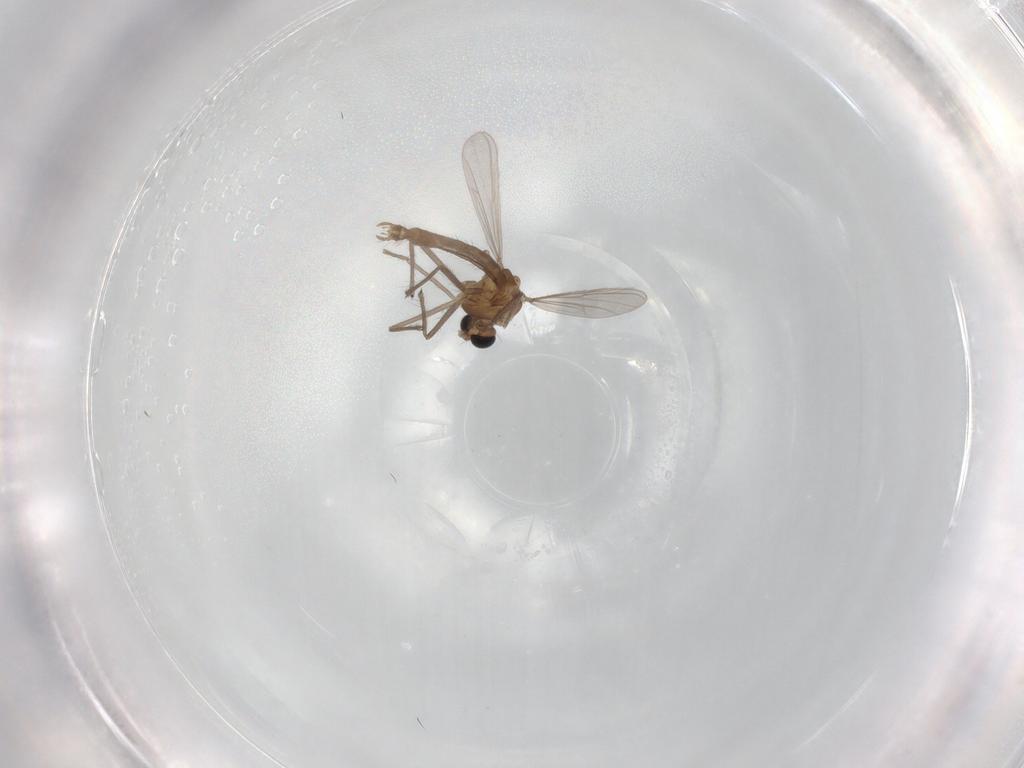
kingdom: Animalia
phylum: Arthropoda
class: Insecta
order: Diptera
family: Chironomidae
